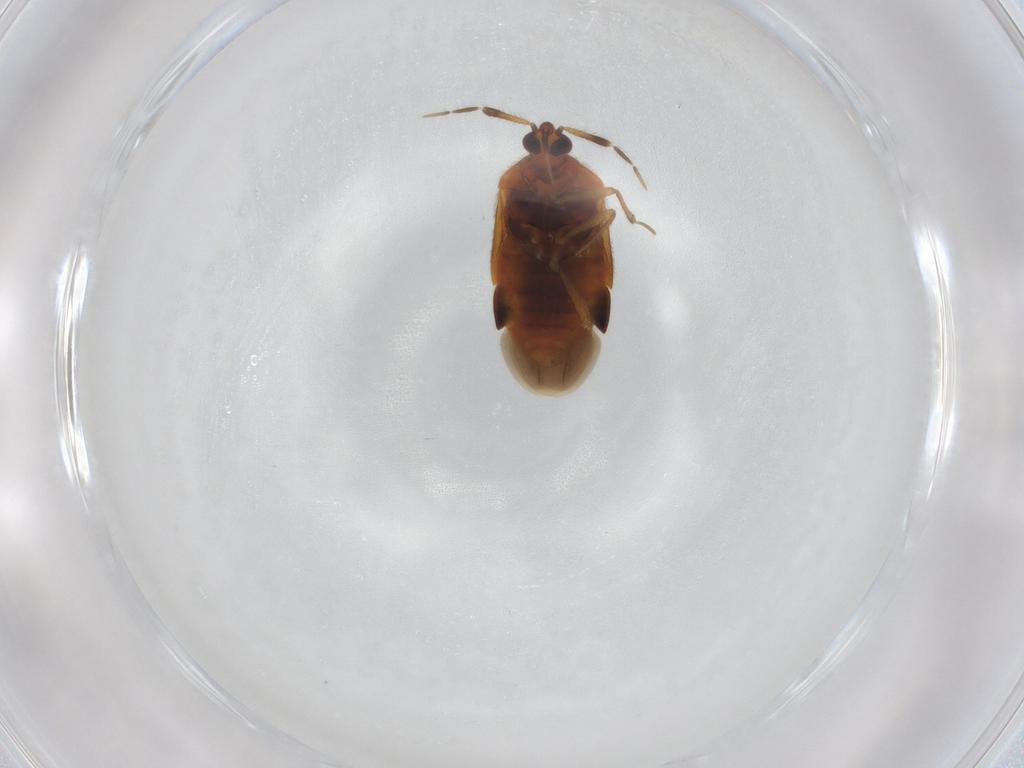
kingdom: Animalia
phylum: Arthropoda
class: Insecta
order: Hemiptera
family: Anthocoridae
